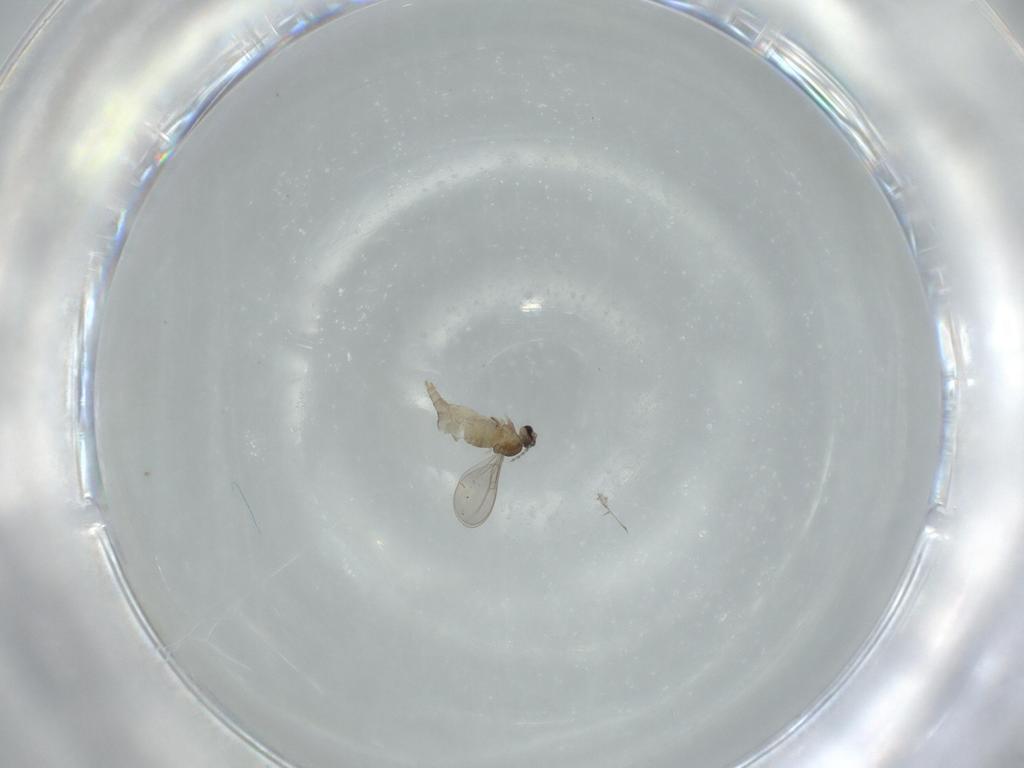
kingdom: Animalia
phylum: Arthropoda
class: Insecta
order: Diptera
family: Cecidomyiidae
